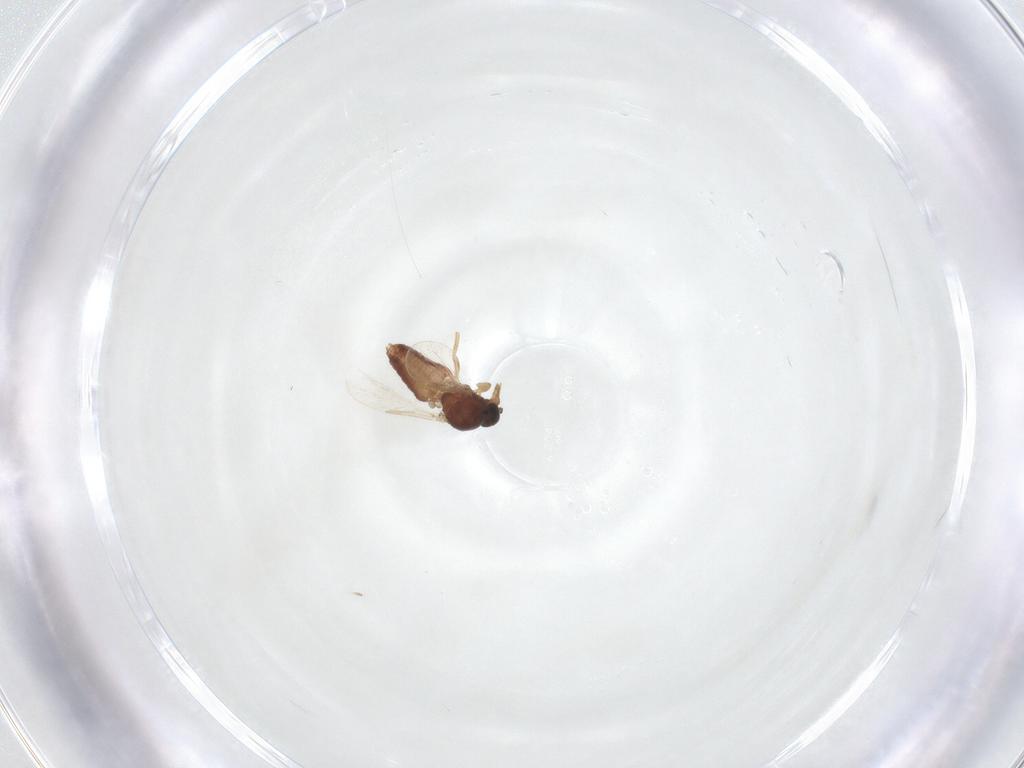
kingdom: Animalia
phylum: Arthropoda
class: Insecta
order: Diptera
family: Ceratopogonidae
